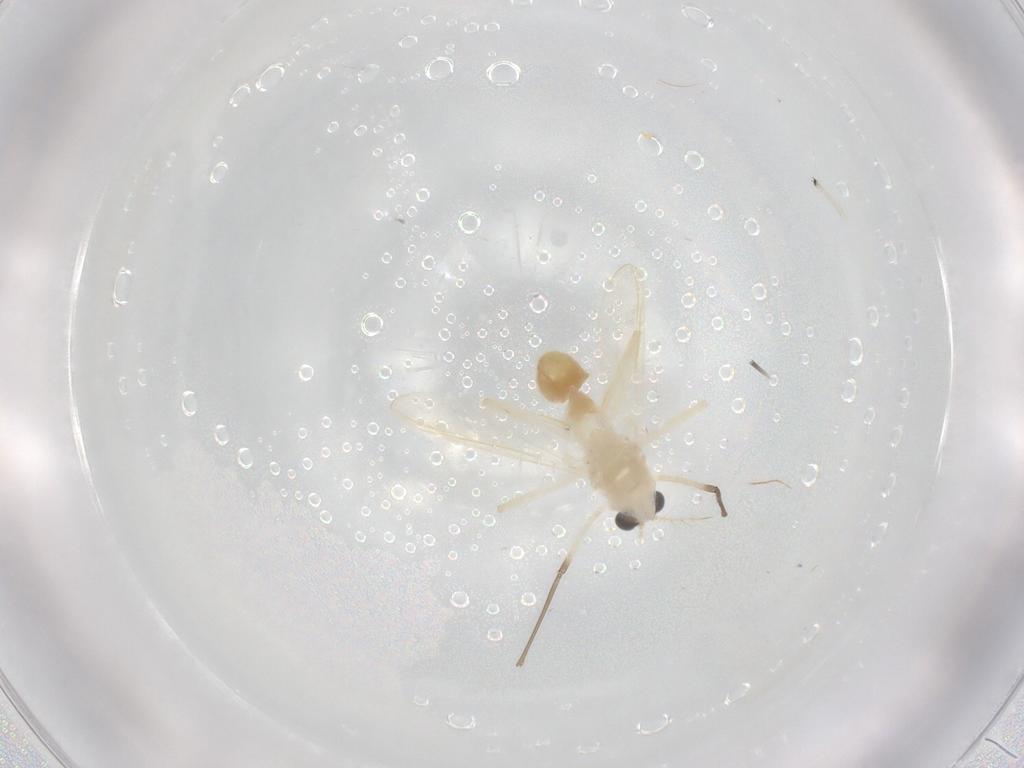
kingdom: Animalia
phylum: Arthropoda
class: Insecta
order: Diptera
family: Chironomidae
